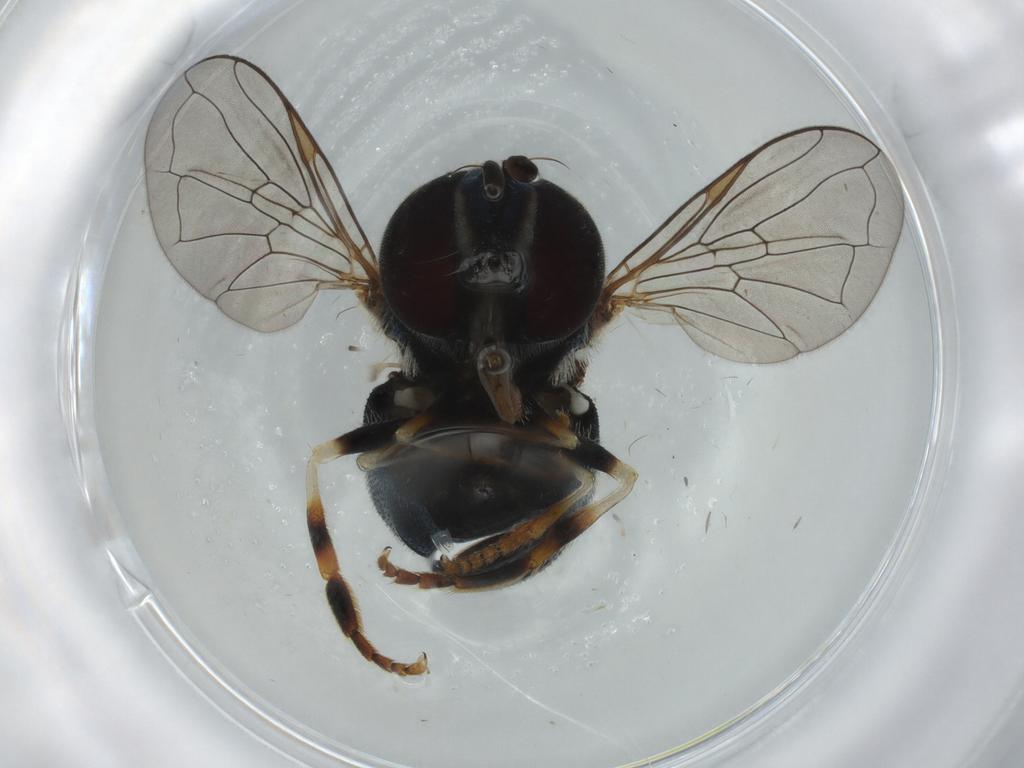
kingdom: Animalia
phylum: Arthropoda
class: Insecta
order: Diptera
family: Syrphidae
